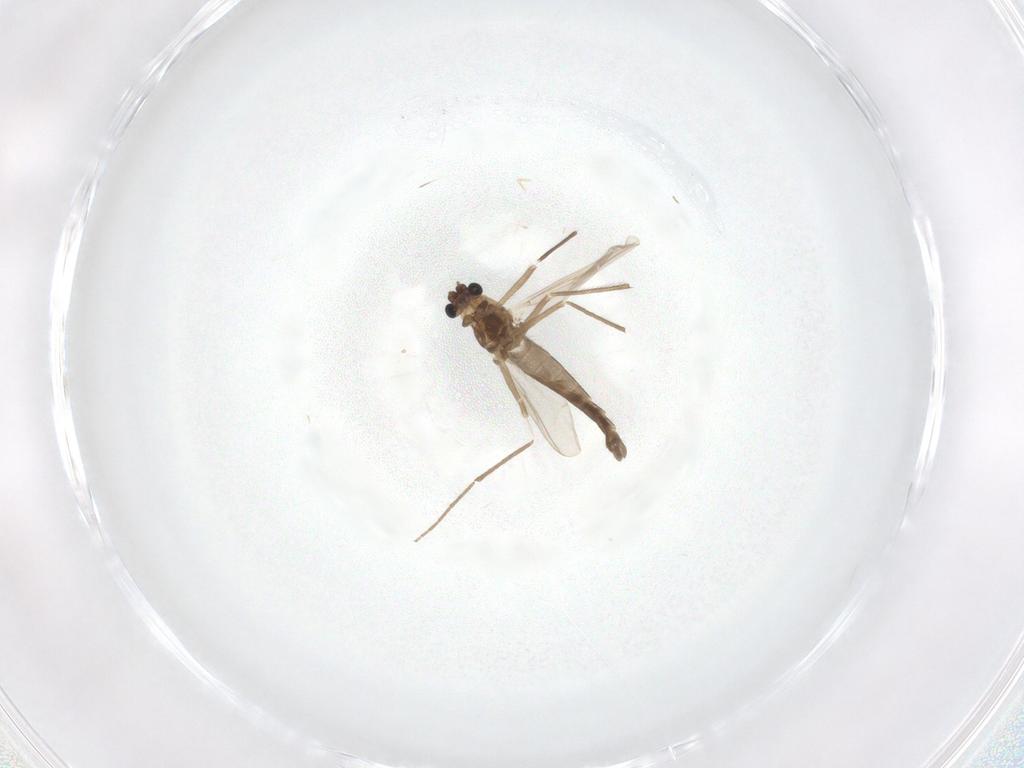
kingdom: Animalia
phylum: Arthropoda
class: Insecta
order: Diptera
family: Chironomidae
